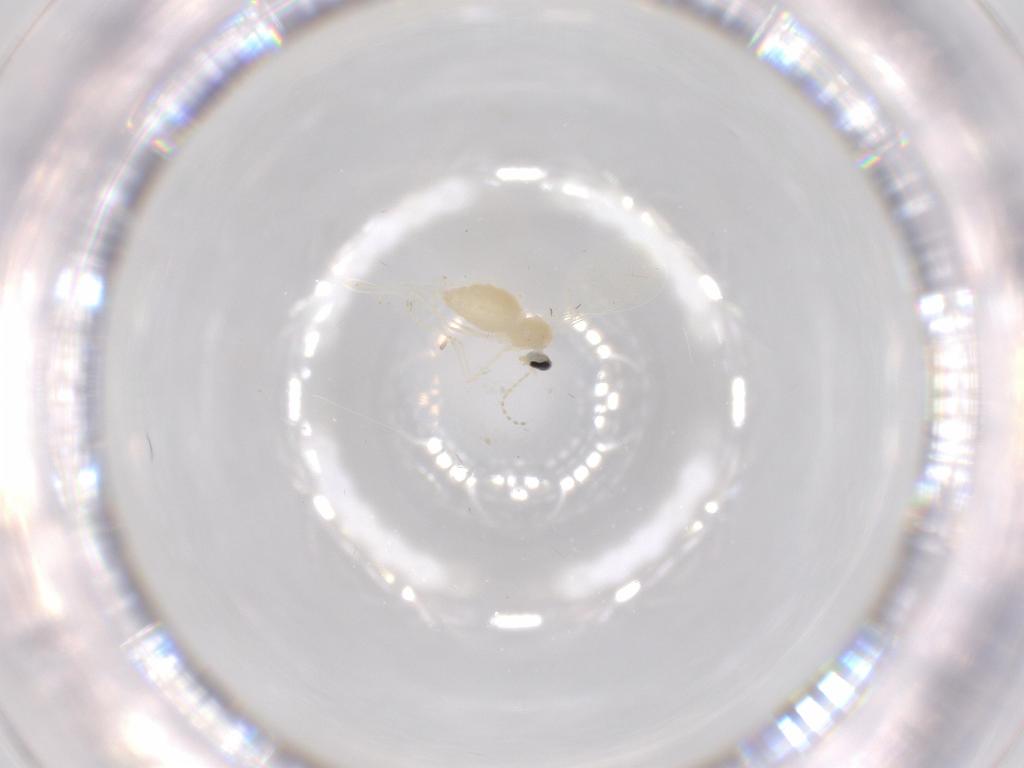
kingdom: Animalia
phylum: Arthropoda
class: Insecta
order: Diptera
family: Cecidomyiidae
